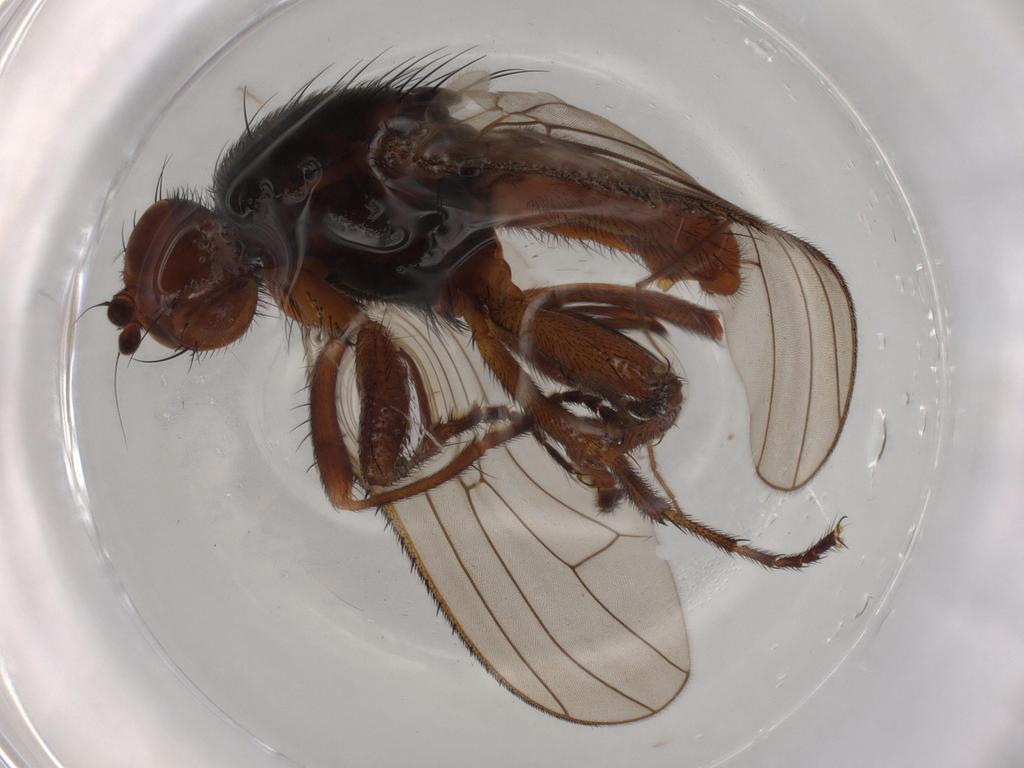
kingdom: Animalia
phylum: Arthropoda
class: Insecta
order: Diptera
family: Heleomyzidae
